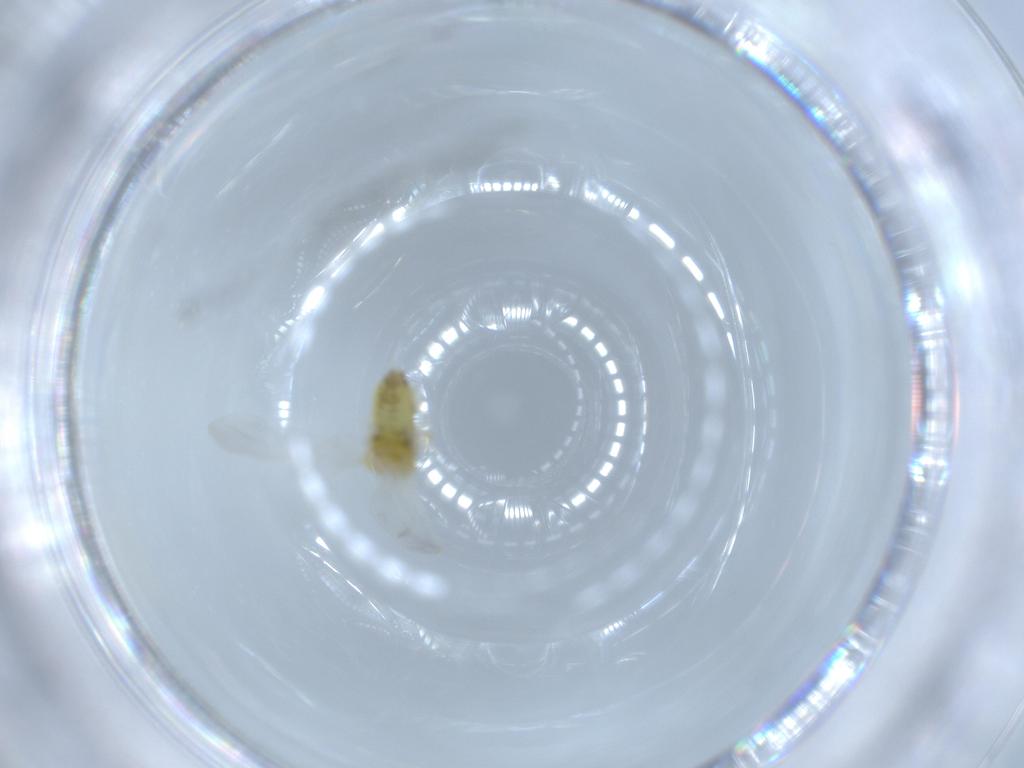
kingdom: Animalia
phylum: Arthropoda
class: Insecta
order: Hemiptera
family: Aleyrodidae
